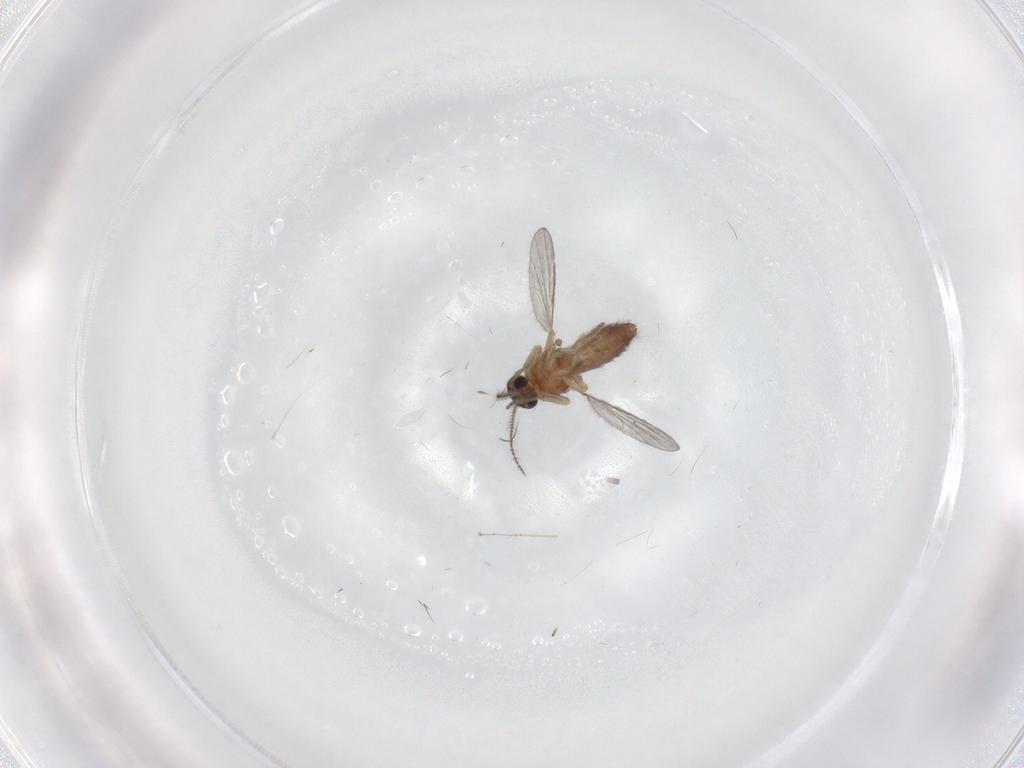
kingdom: Animalia
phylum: Arthropoda
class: Insecta
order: Diptera
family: Ceratopogonidae
